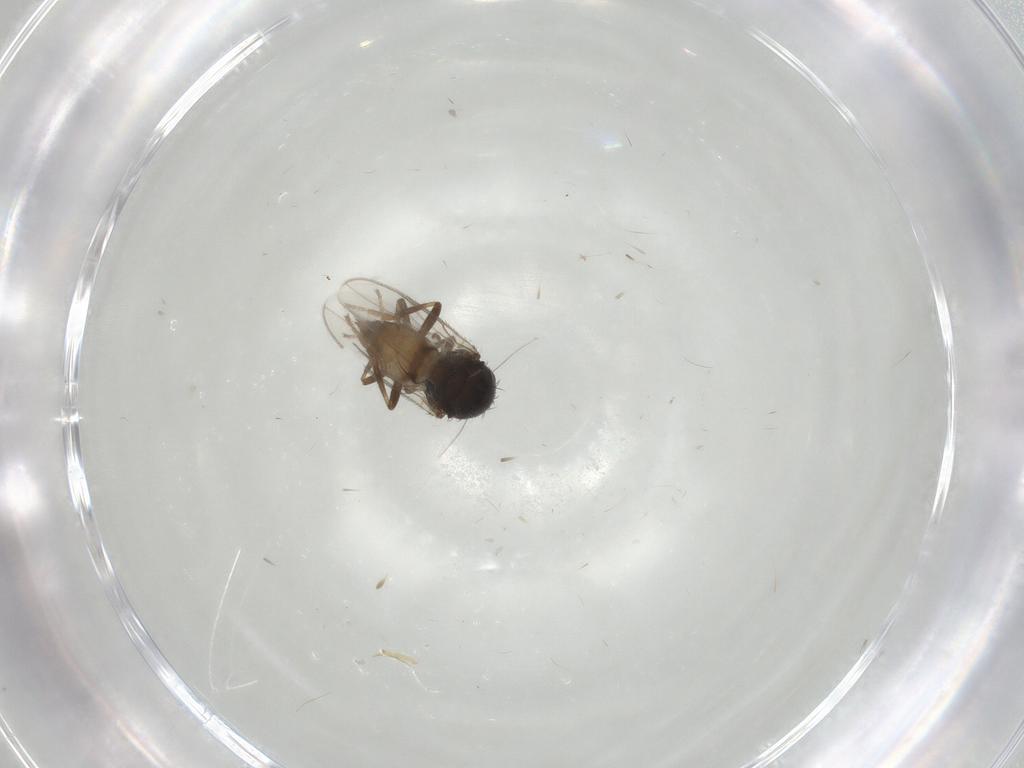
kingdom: Animalia
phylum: Arthropoda
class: Insecta
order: Diptera
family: Sphaeroceridae
